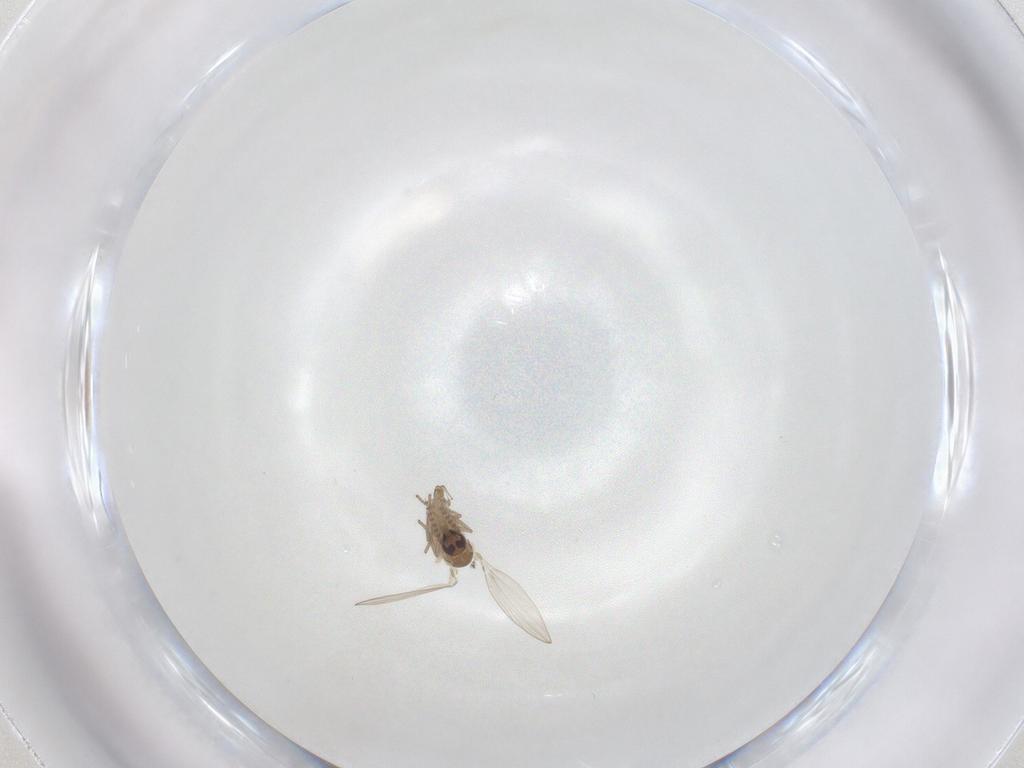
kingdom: Animalia
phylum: Arthropoda
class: Insecta
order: Diptera
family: Psychodidae
